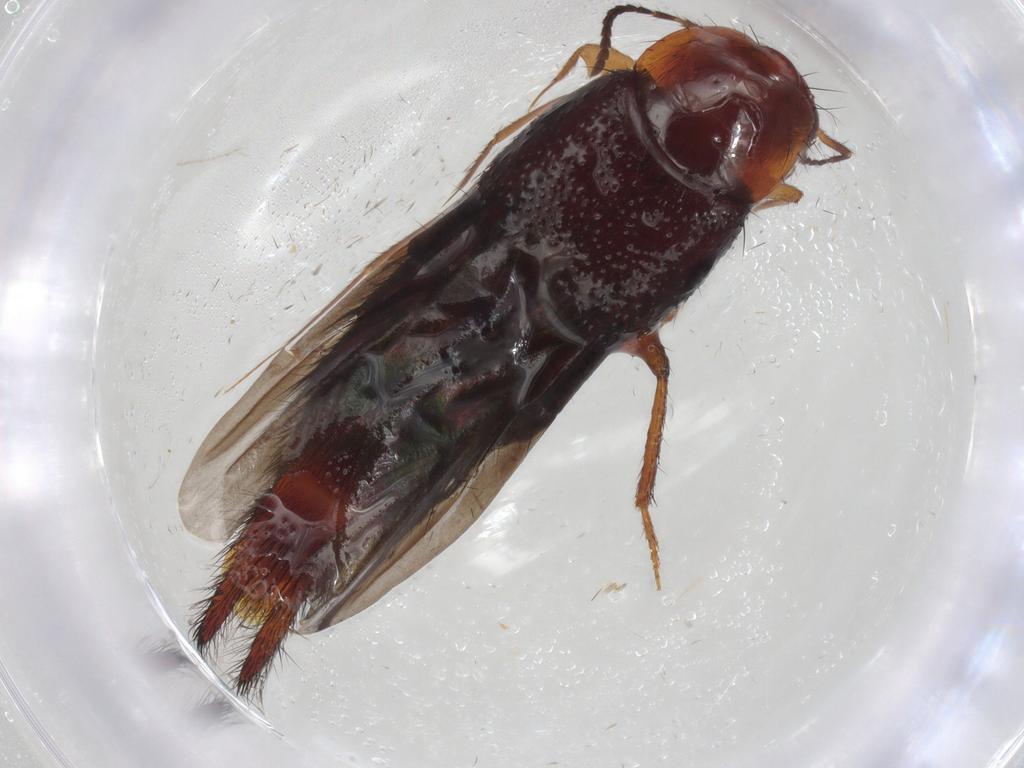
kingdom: Animalia
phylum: Arthropoda
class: Insecta
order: Coleoptera
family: Staphylinidae
